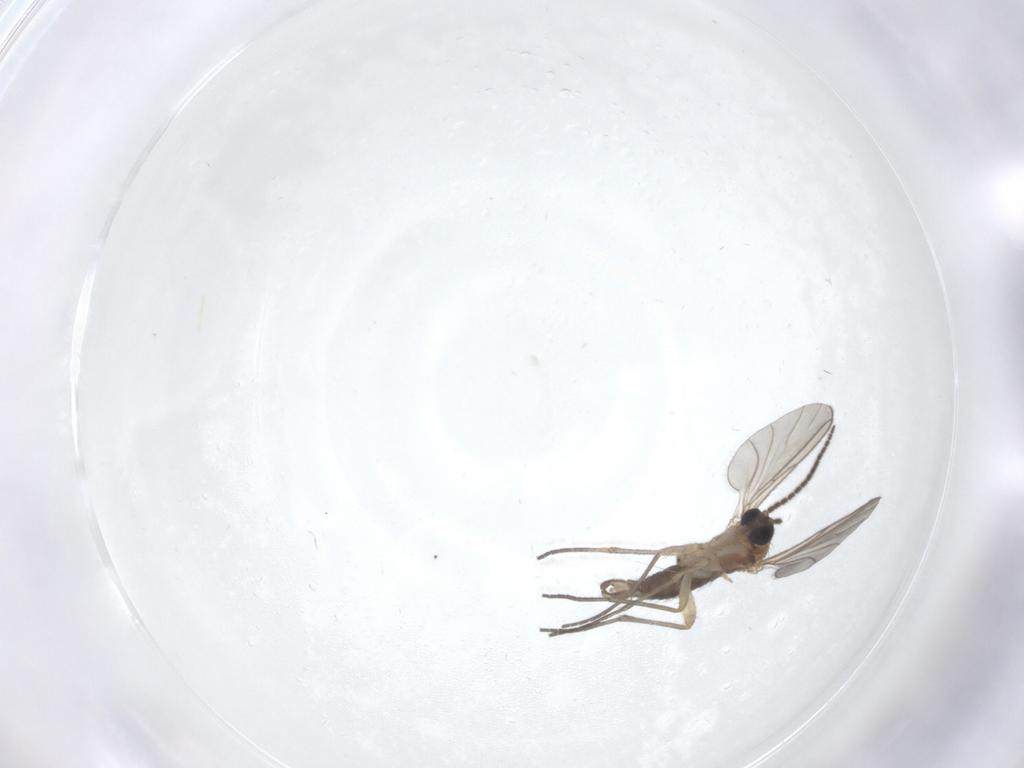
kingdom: Animalia
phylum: Arthropoda
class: Insecta
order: Diptera
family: Sciaridae
